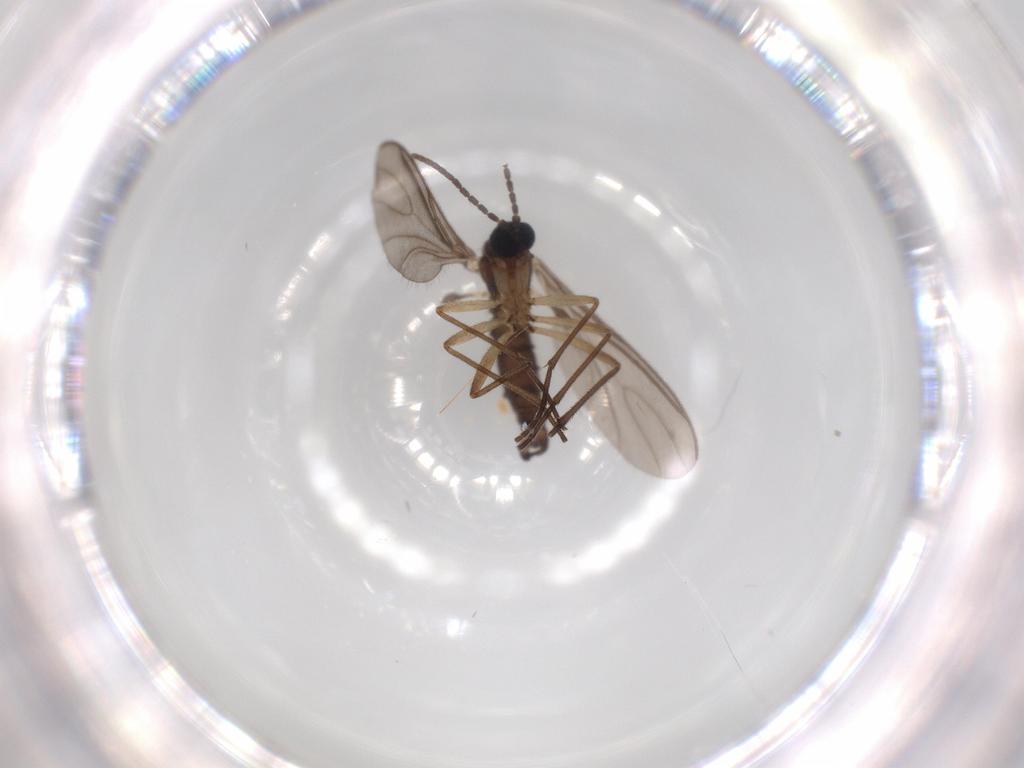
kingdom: Animalia
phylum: Arthropoda
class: Insecta
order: Diptera
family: Sciaridae
